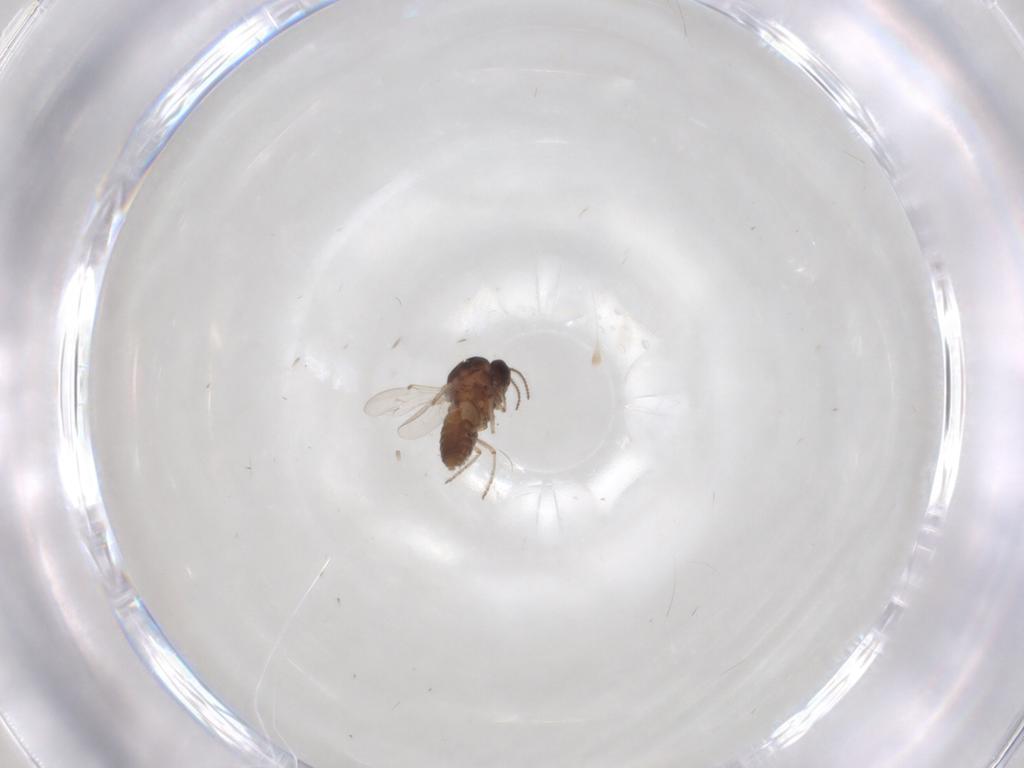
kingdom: Animalia
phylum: Arthropoda
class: Insecta
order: Diptera
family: Ceratopogonidae
